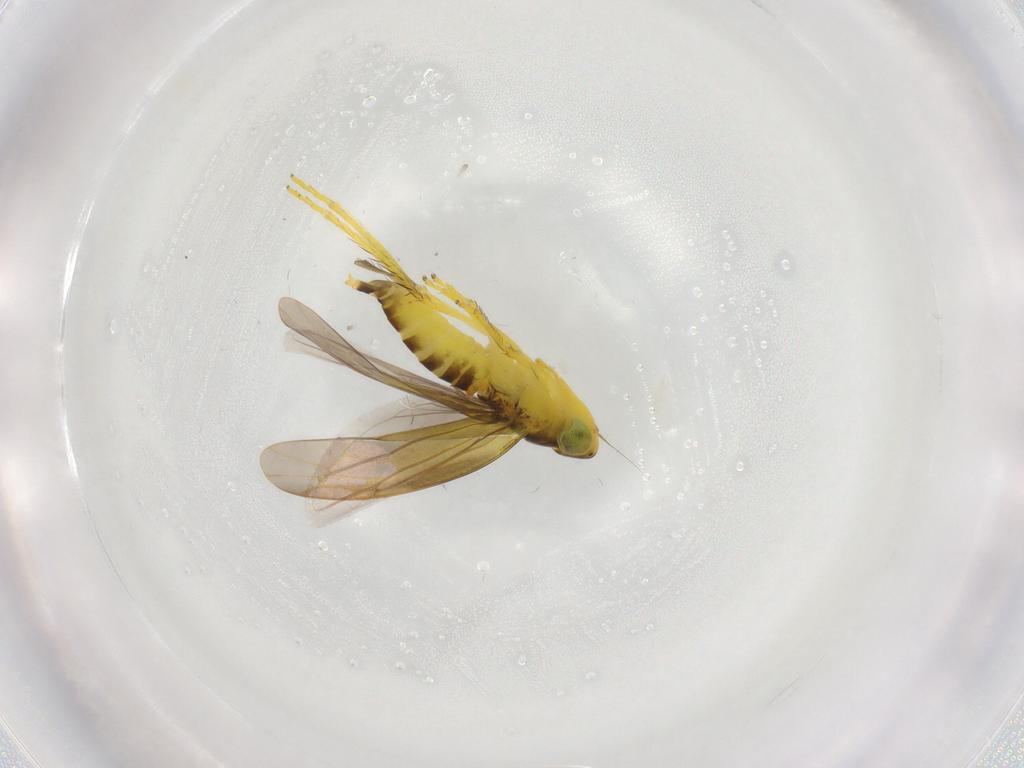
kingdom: Animalia
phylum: Arthropoda
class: Insecta
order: Hemiptera
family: Cicadellidae
